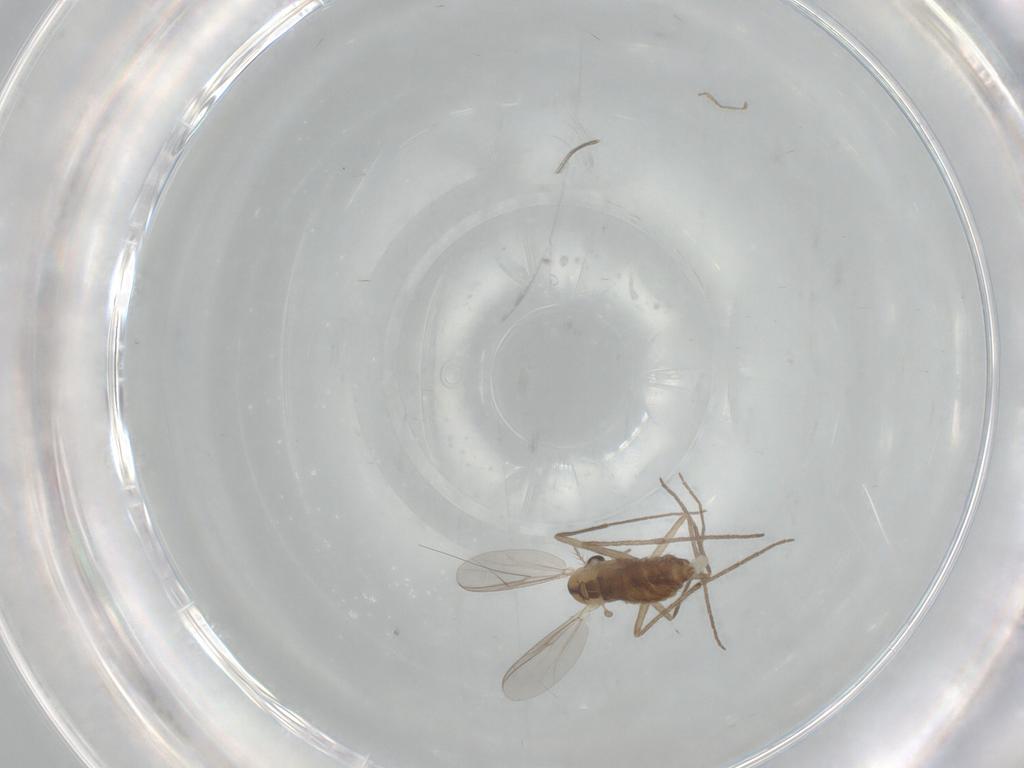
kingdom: Animalia
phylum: Arthropoda
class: Insecta
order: Diptera
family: Chironomidae
